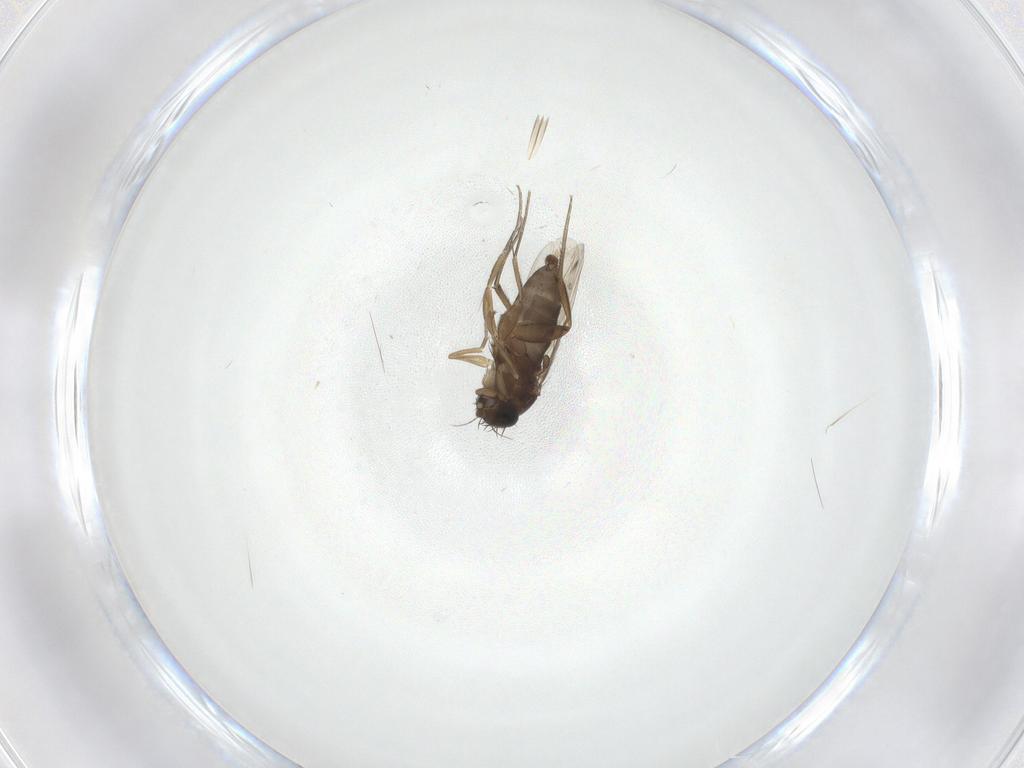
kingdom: Animalia
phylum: Arthropoda
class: Insecta
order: Diptera
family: Phoridae
